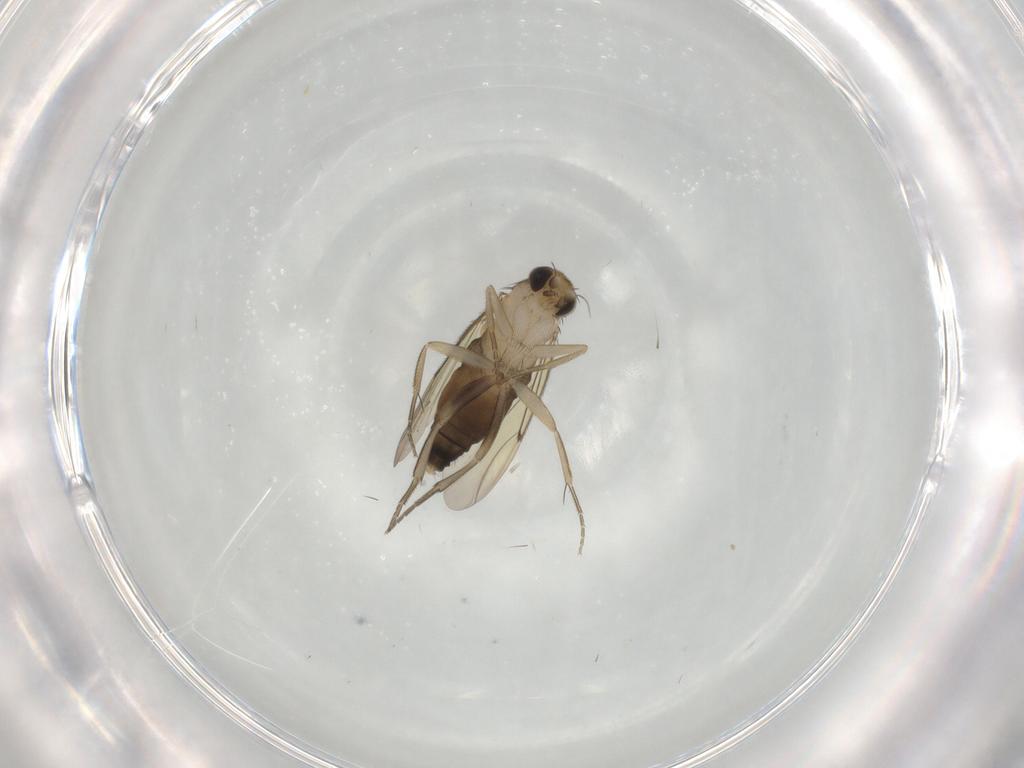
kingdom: Animalia
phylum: Arthropoda
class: Insecta
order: Diptera
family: Phoridae
